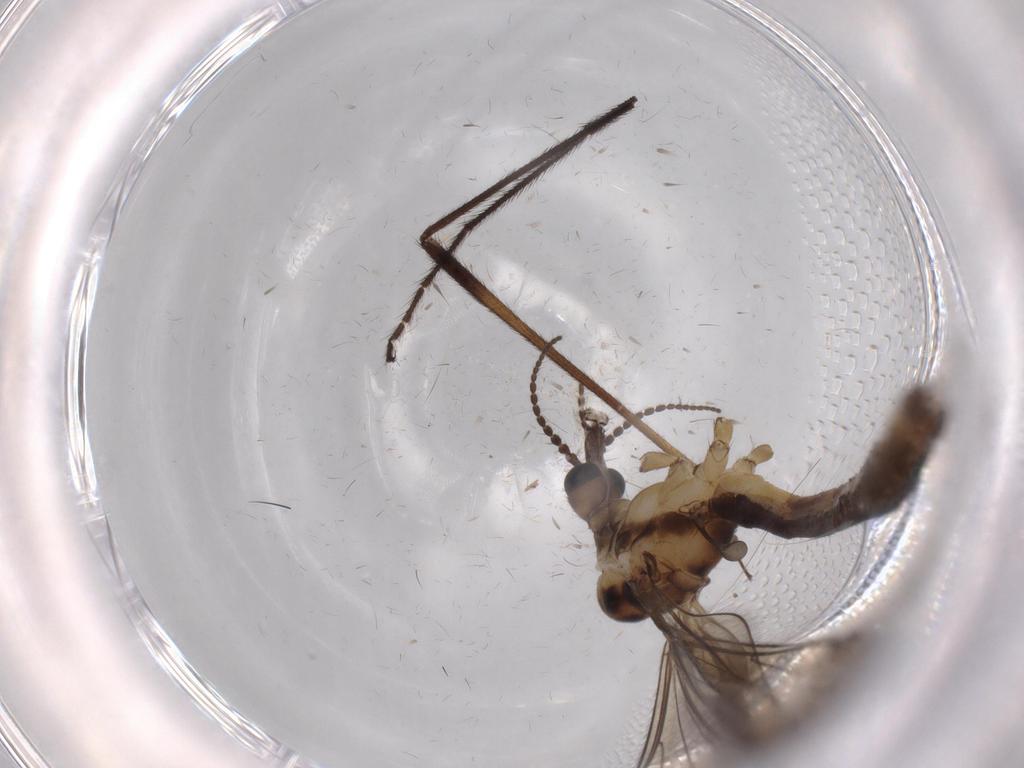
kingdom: Animalia
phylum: Arthropoda
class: Insecta
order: Diptera
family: Limoniidae
